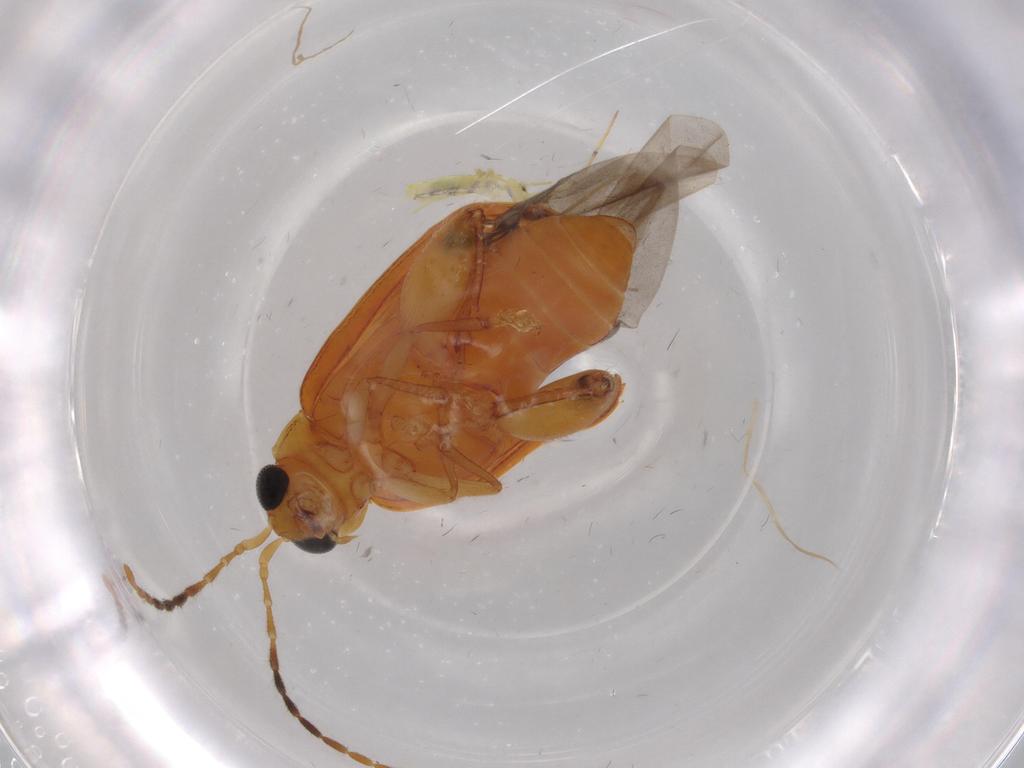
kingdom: Animalia
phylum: Arthropoda
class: Insecta
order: Coleoptera
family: Chrysomelidae
